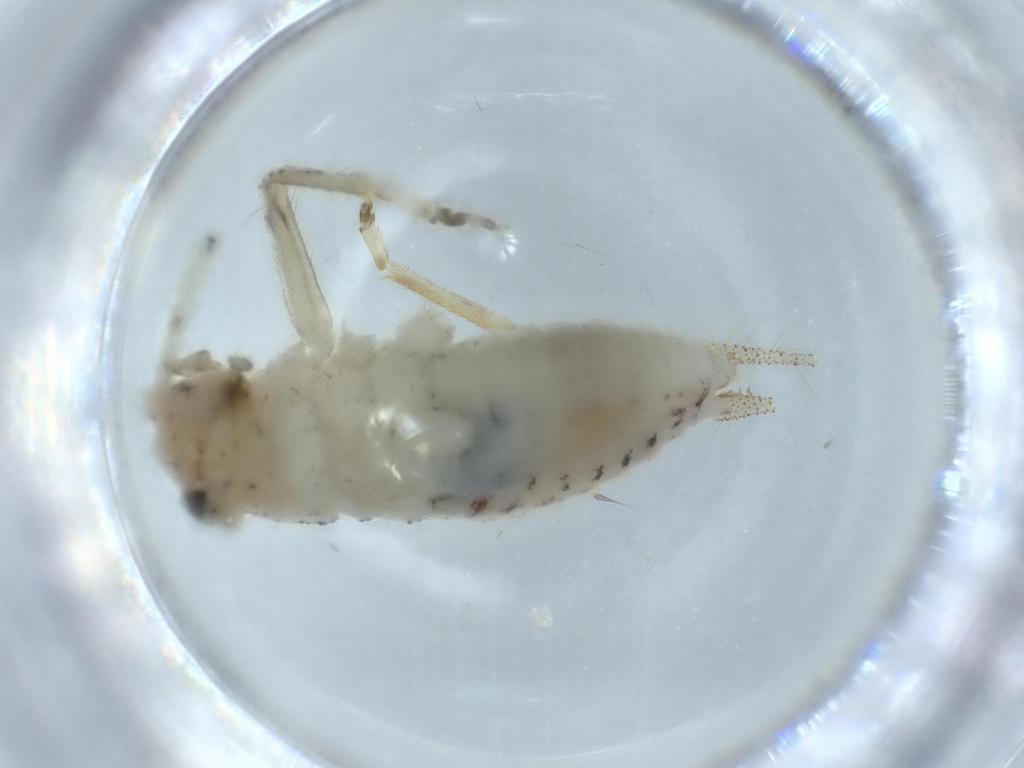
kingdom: Animalia
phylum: Arthropoda
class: Insecta
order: Orthoptera
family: Trigonidiidae
